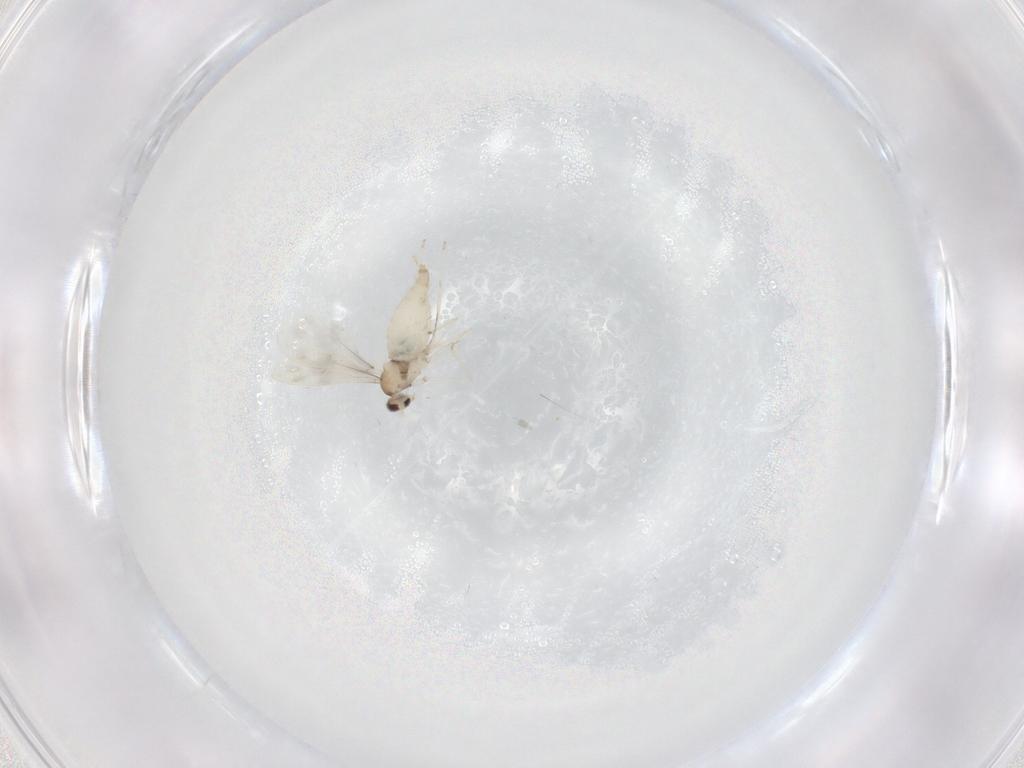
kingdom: Animalia
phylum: Arthropoda
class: Insecta
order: Diptera
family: Cecidomyiidae
